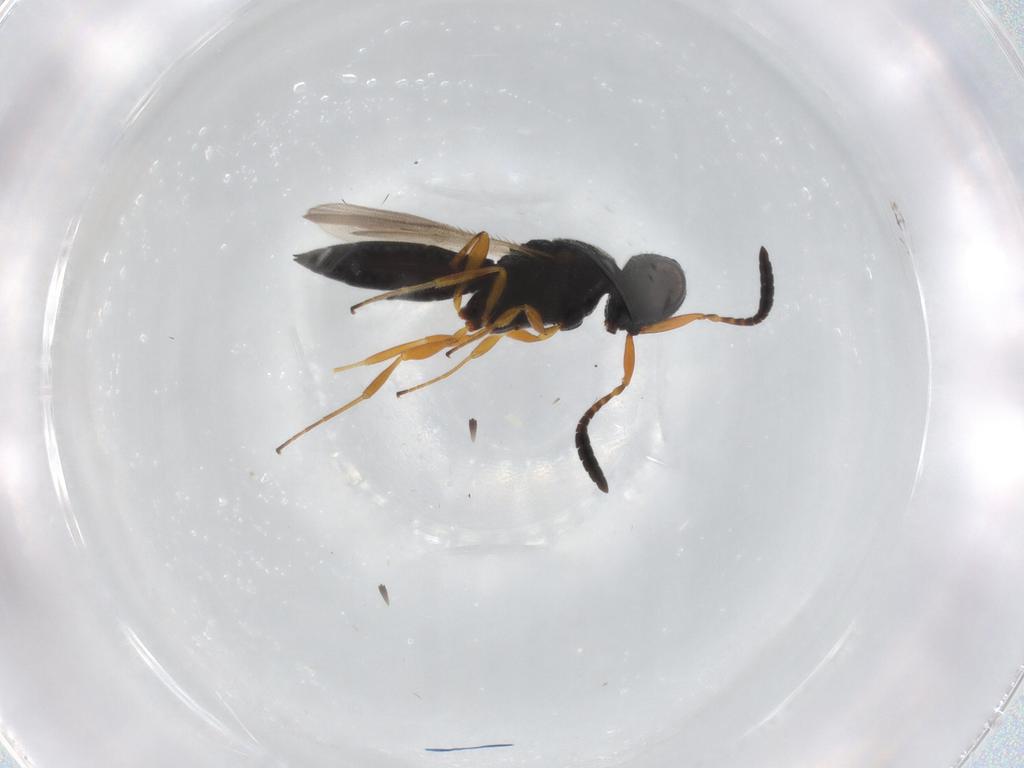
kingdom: Animalia
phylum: Arthropoda
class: Insecta
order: Hymenoptera
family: Scelionidae
